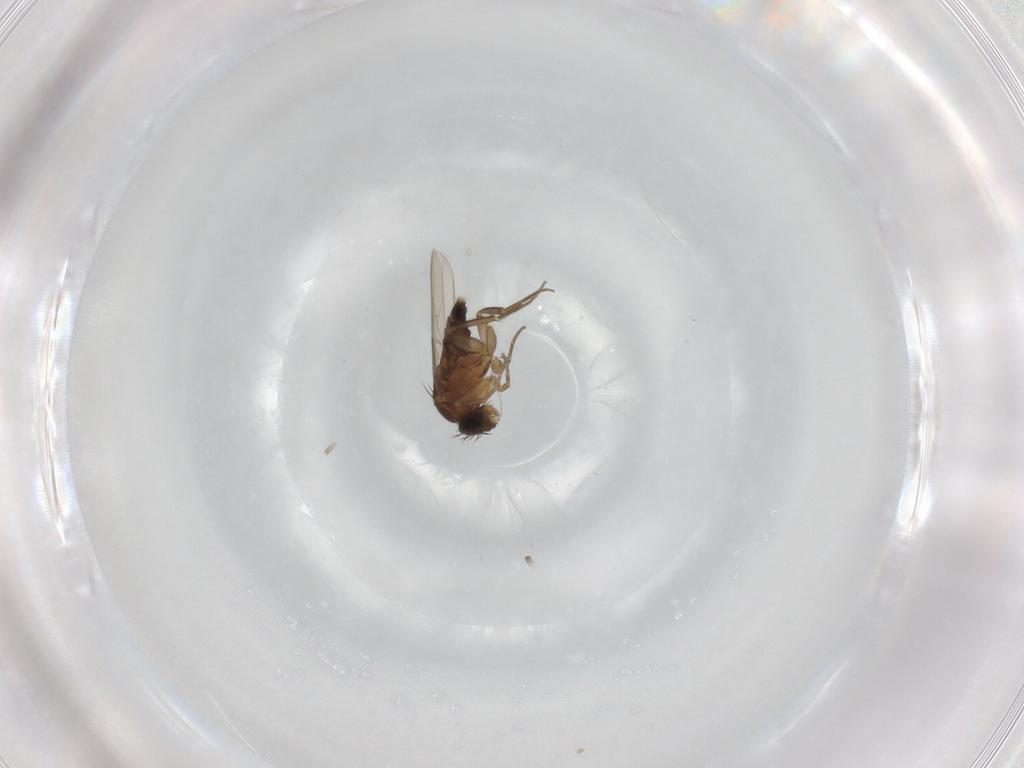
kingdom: Animalia
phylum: Arthropoda
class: Insecta
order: Diptera
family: Phoridae
